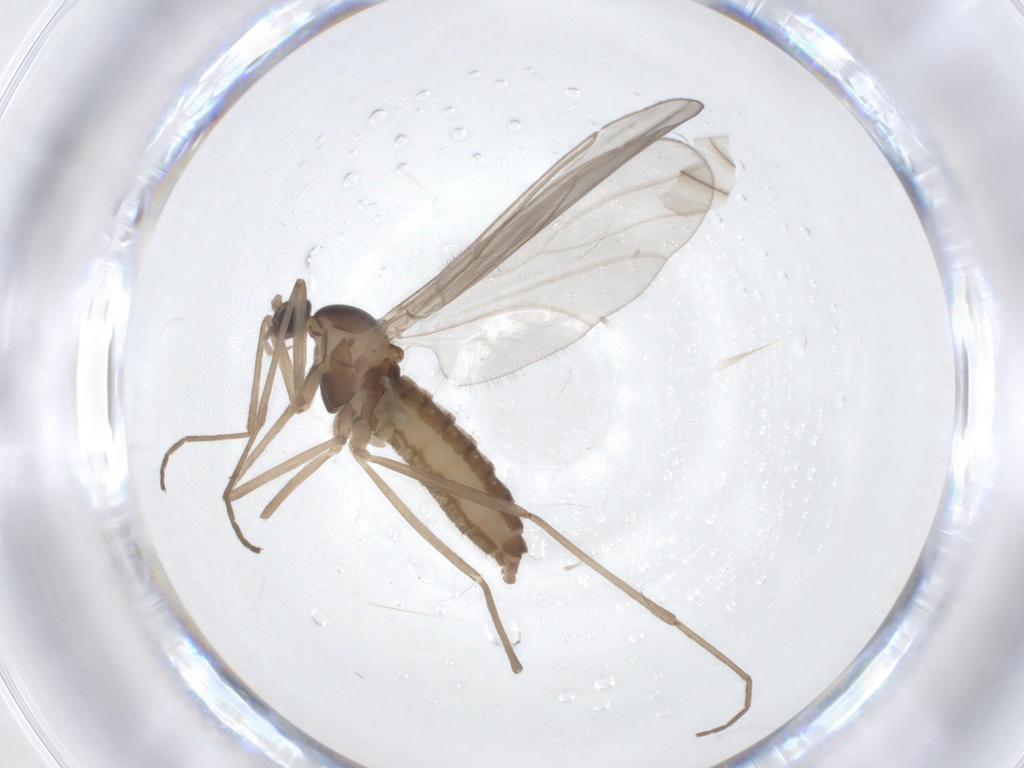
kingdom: Animalia
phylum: Arthropoda
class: Insecta
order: Diptera
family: Cecidomyiidae
